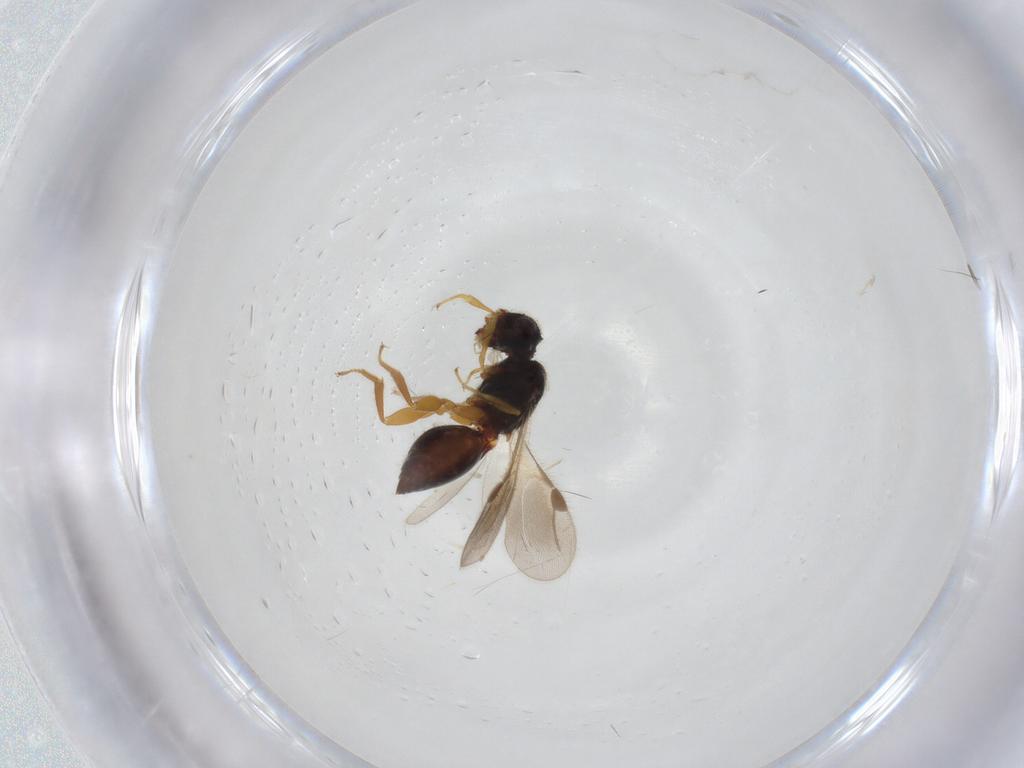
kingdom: Animalia
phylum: Arthropoda
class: Insecta
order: Hymenoptera
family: Megaspilidae
